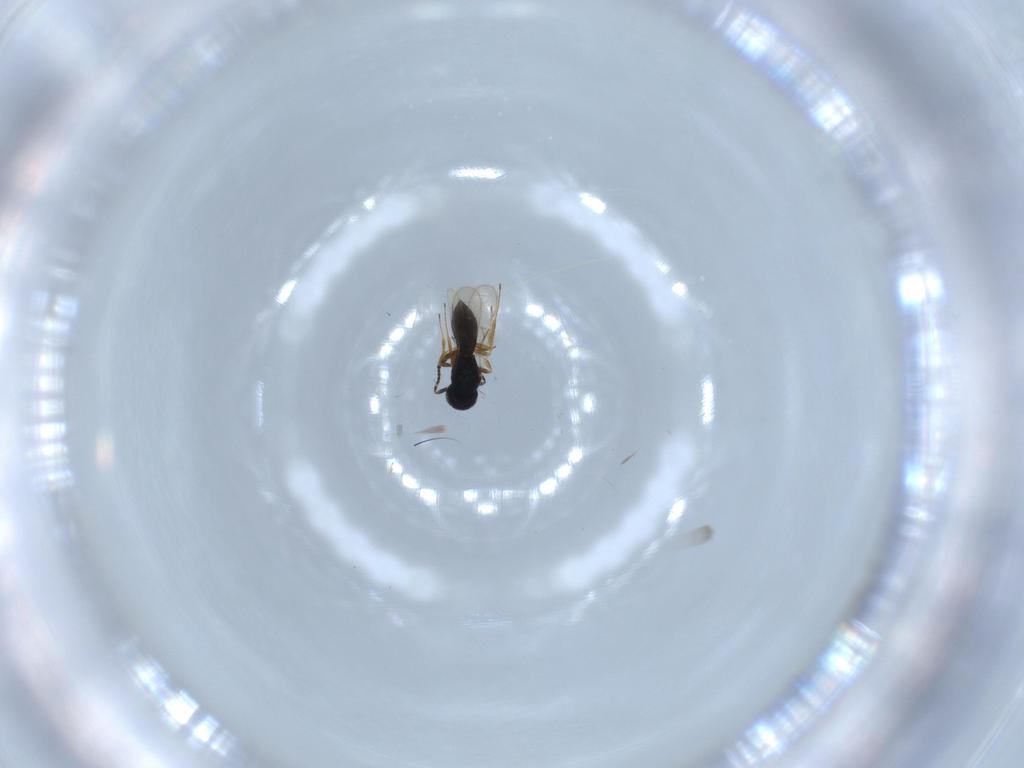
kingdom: Animalia
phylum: Arthropoda
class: Insecta
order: Hymenoptera
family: Scelionidae
